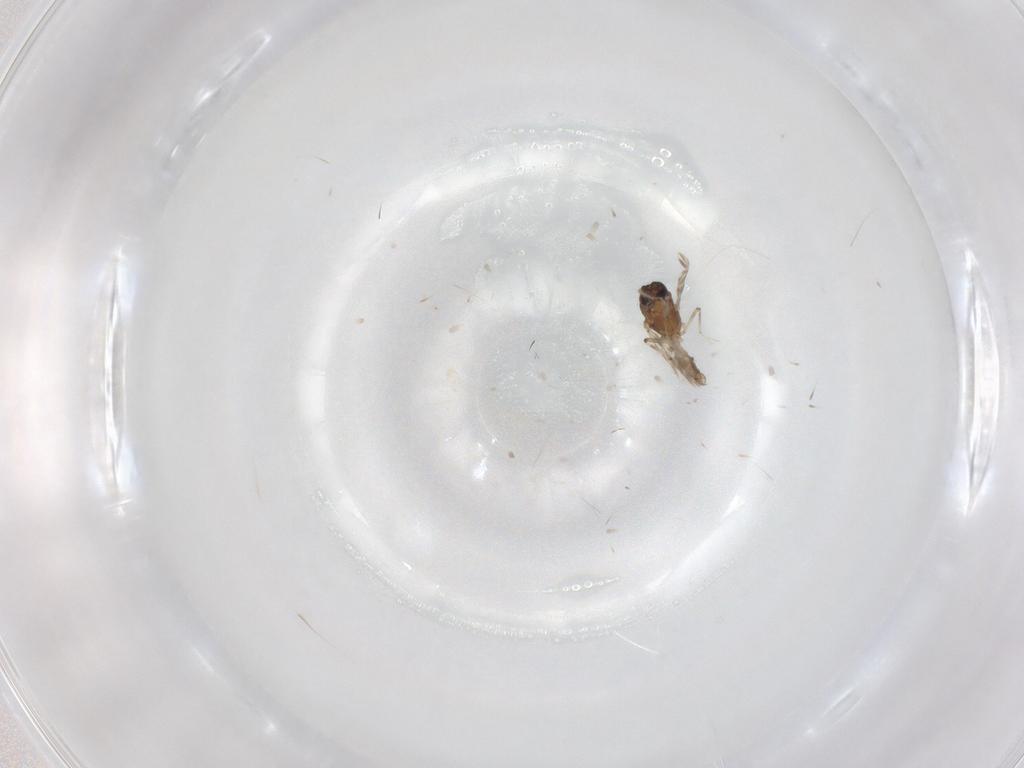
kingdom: Animalia
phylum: Arthropoda
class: Insecta
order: Diptera
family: Ceratopogonidae
